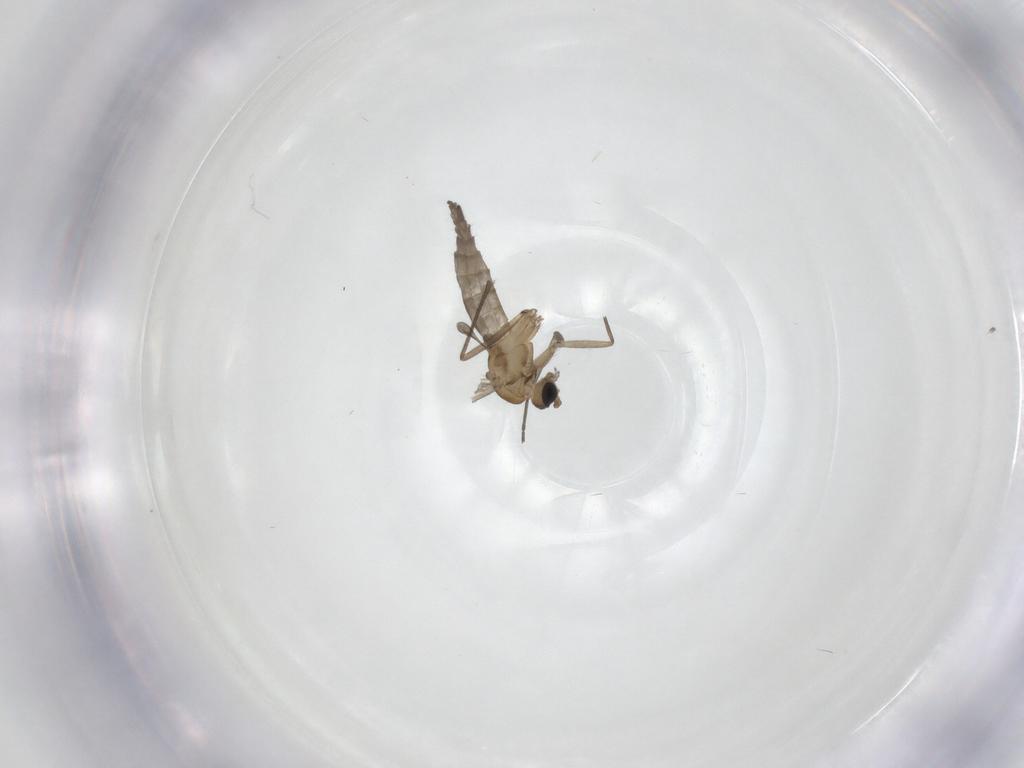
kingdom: Animalia
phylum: Arthropoda
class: Insecta
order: Diptera
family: Sciaridae
